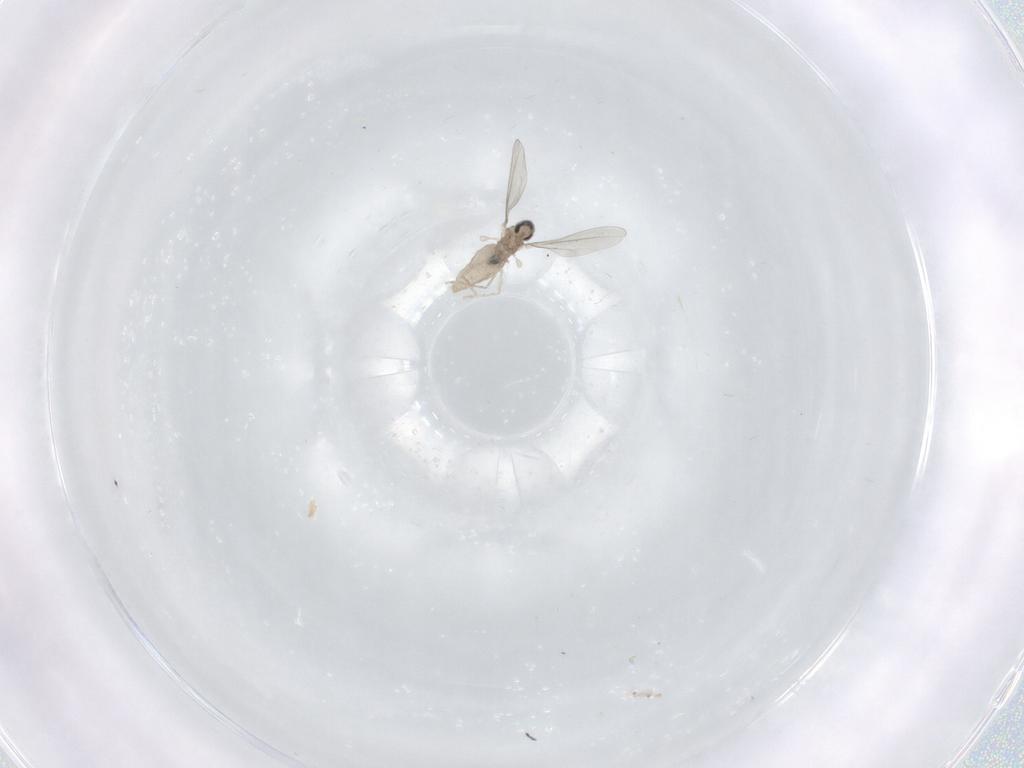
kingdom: Animalia
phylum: Arthropoda
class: Insecta
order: Diptera
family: Cecidomyiidae
